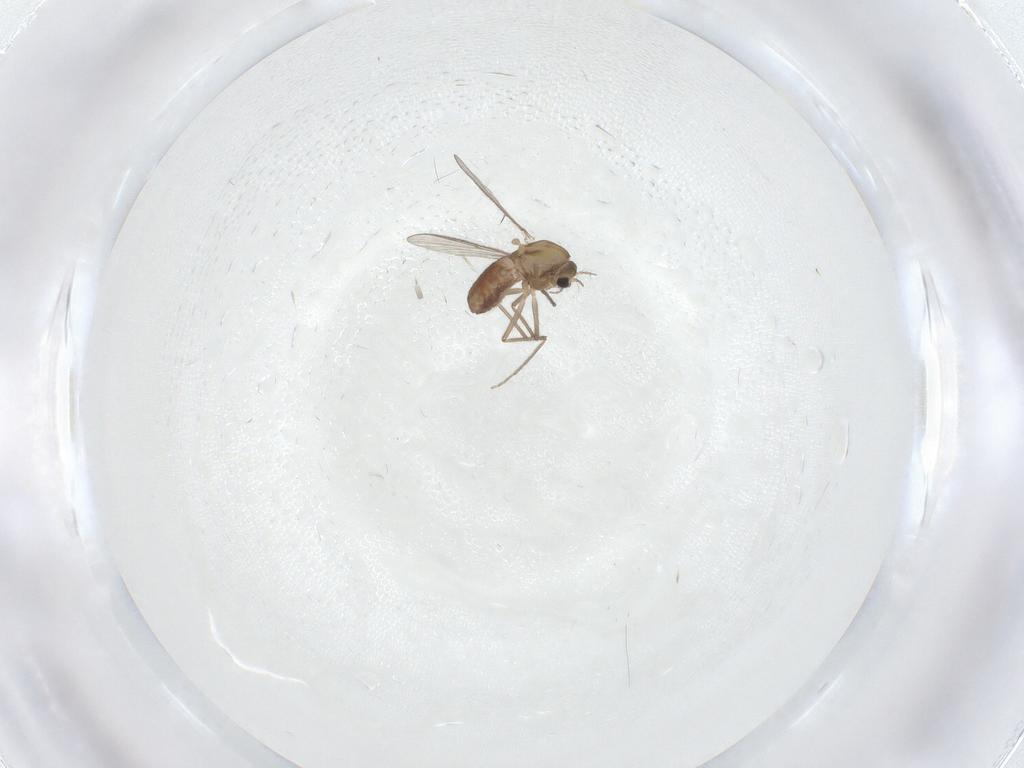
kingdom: Animalia
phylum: Arthropoda
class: Insecta
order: Diptera
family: Chironomidae
